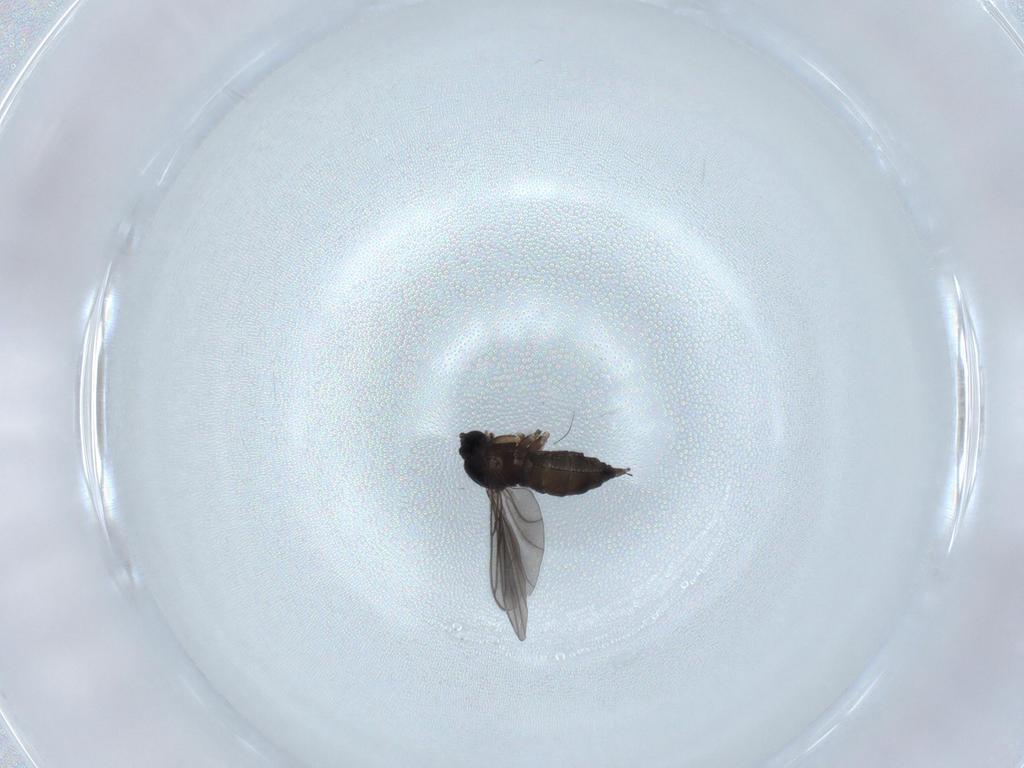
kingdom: Animalia
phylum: Arthropoda
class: Insecta
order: Diptera
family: Sciaridae
